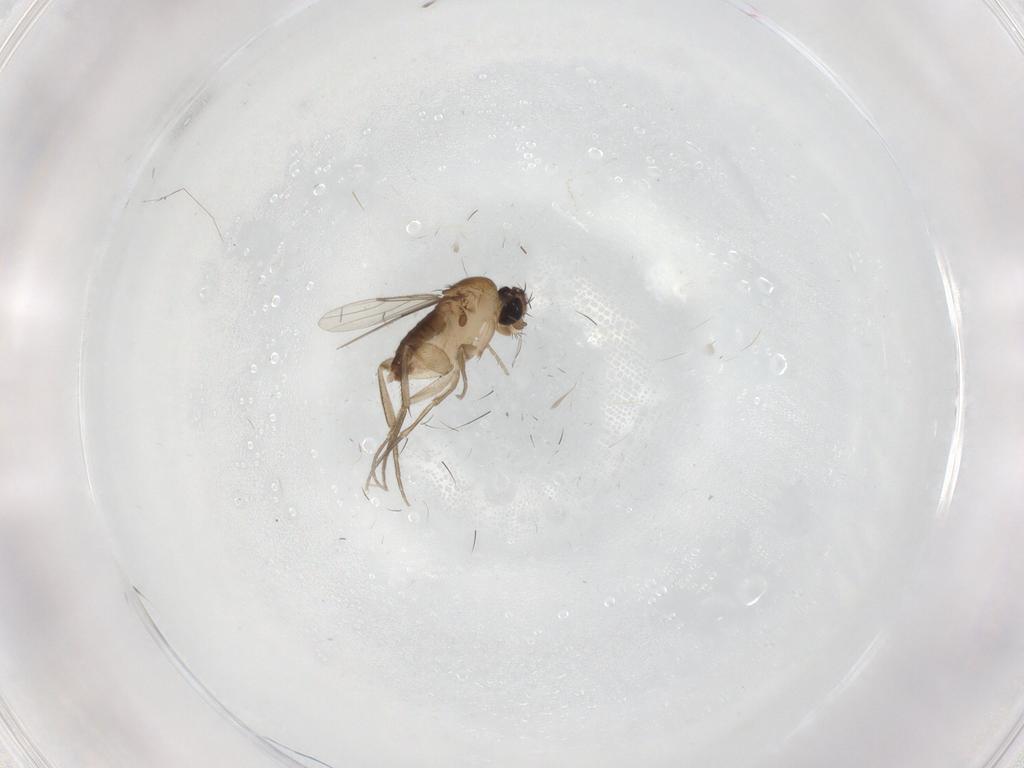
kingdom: Animalia
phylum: Arthropoda
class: Insecta
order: Diptera
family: Phoridae
